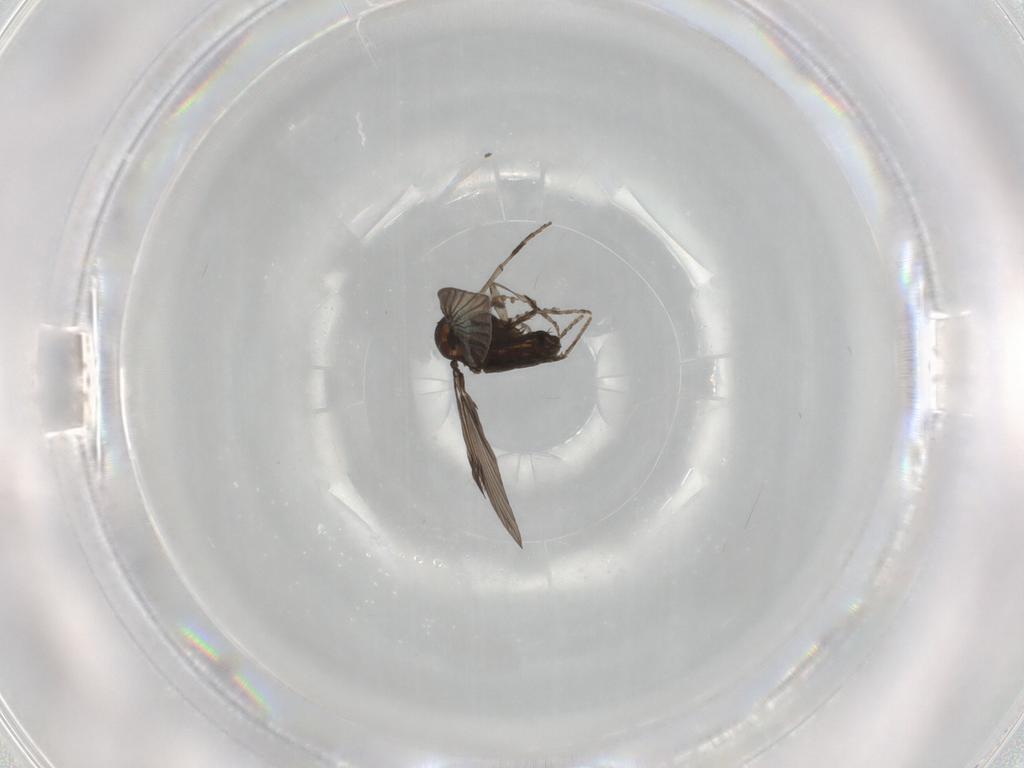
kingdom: Animalia
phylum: Arthropoda
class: Insecta
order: Diptera
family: Psychodidae
